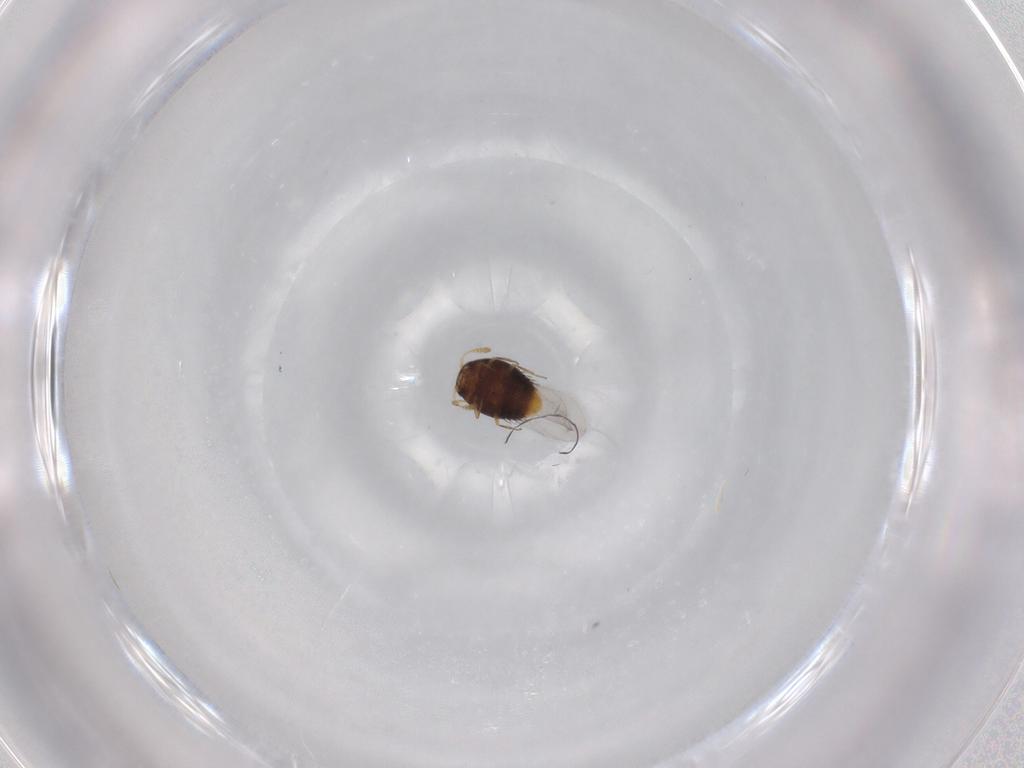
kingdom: Animalia
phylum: Arthropoda
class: Insecta
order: Coleoptera
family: Staphylinidae
